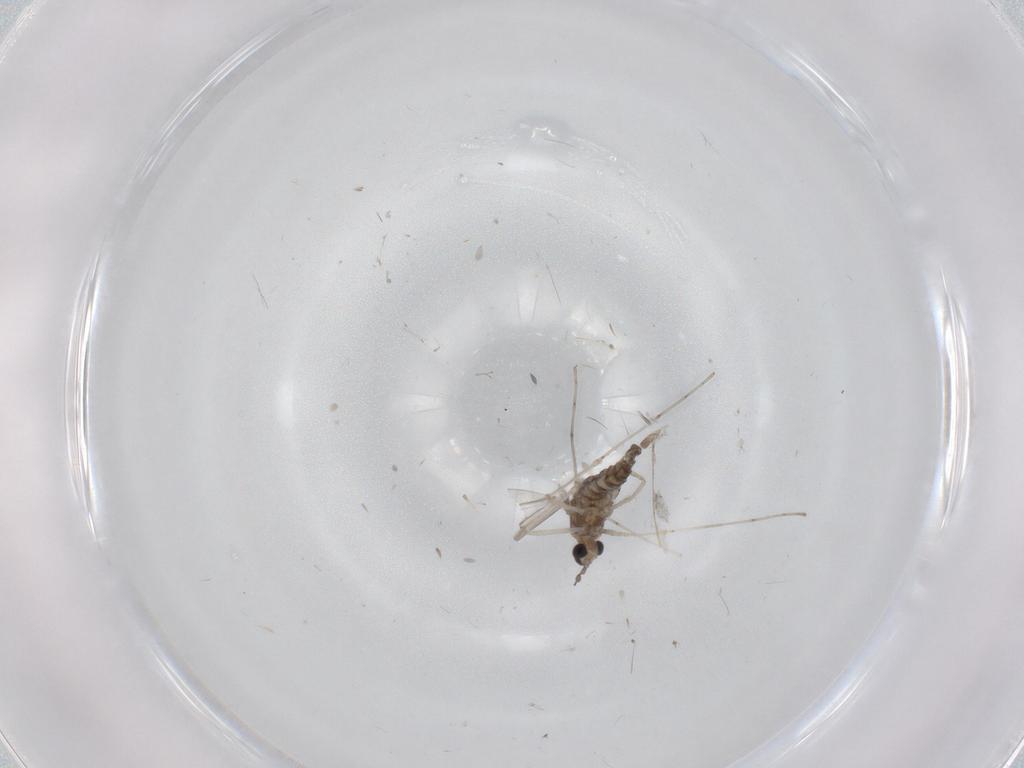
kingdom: Animalia
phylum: Arthropoda
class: Insecta
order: Diptera
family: Cecidomyiidae
